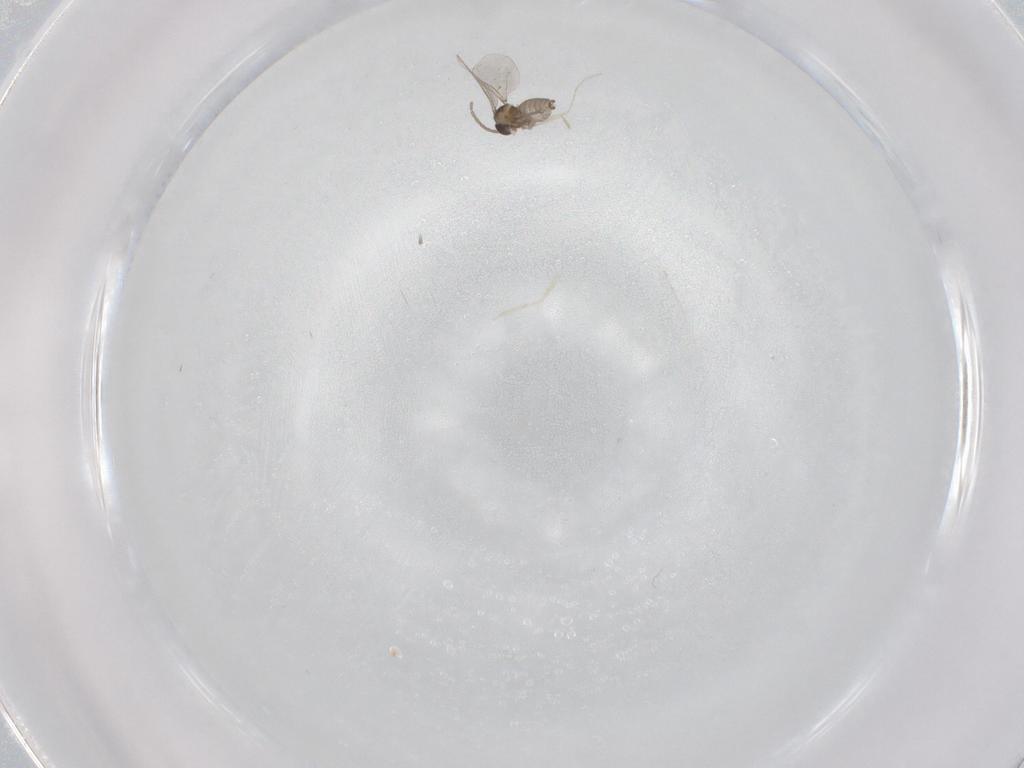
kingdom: Animalia
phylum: Arthropoda
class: Insecta
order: Diptera
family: Cecidomyiidae
